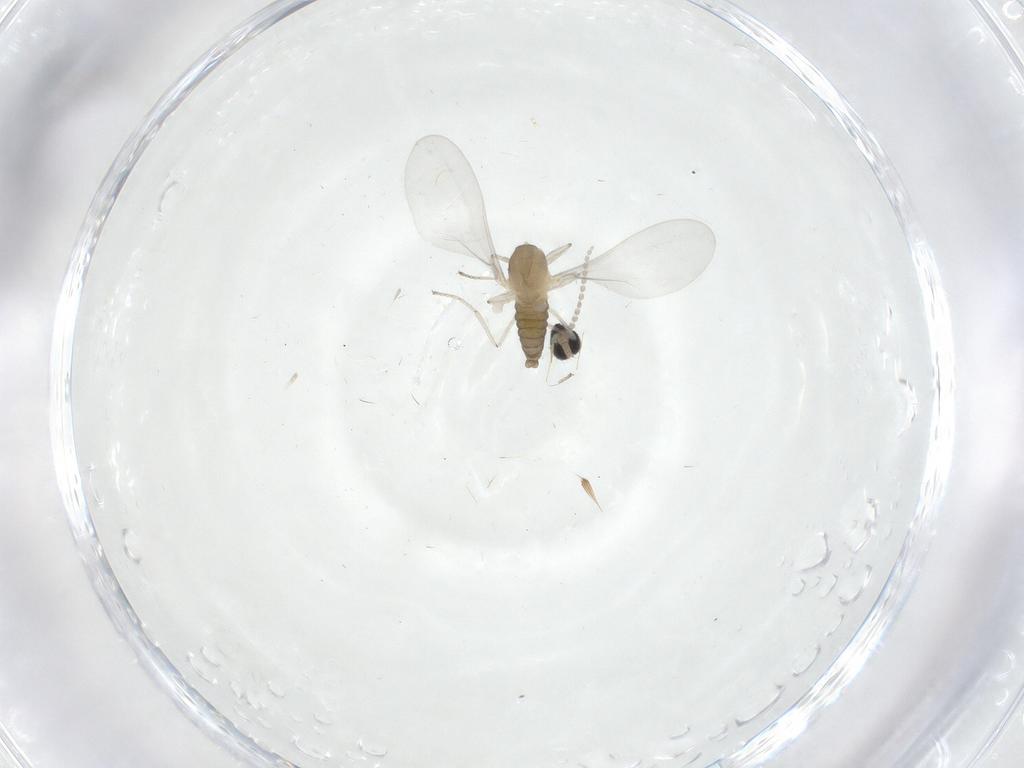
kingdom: Animalia
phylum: Arthropoda
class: Insecta
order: Diptera
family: Cecidomyiidae
